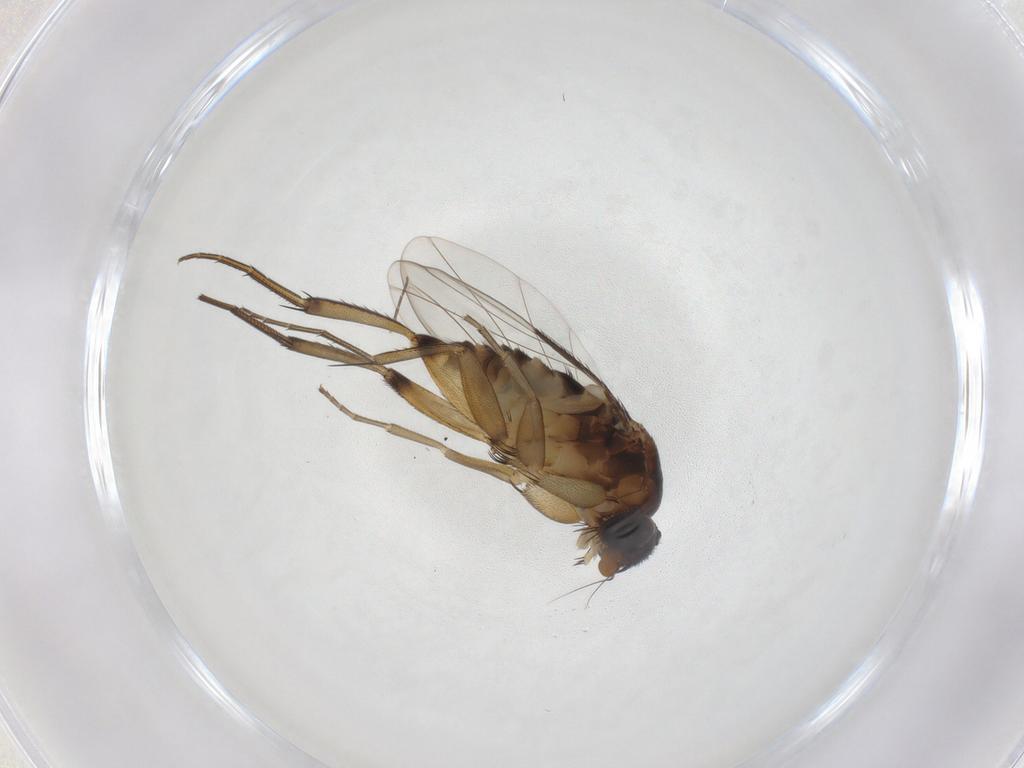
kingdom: Animalia
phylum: Arthropoda
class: Insecta
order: Diptera
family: Phoridae
